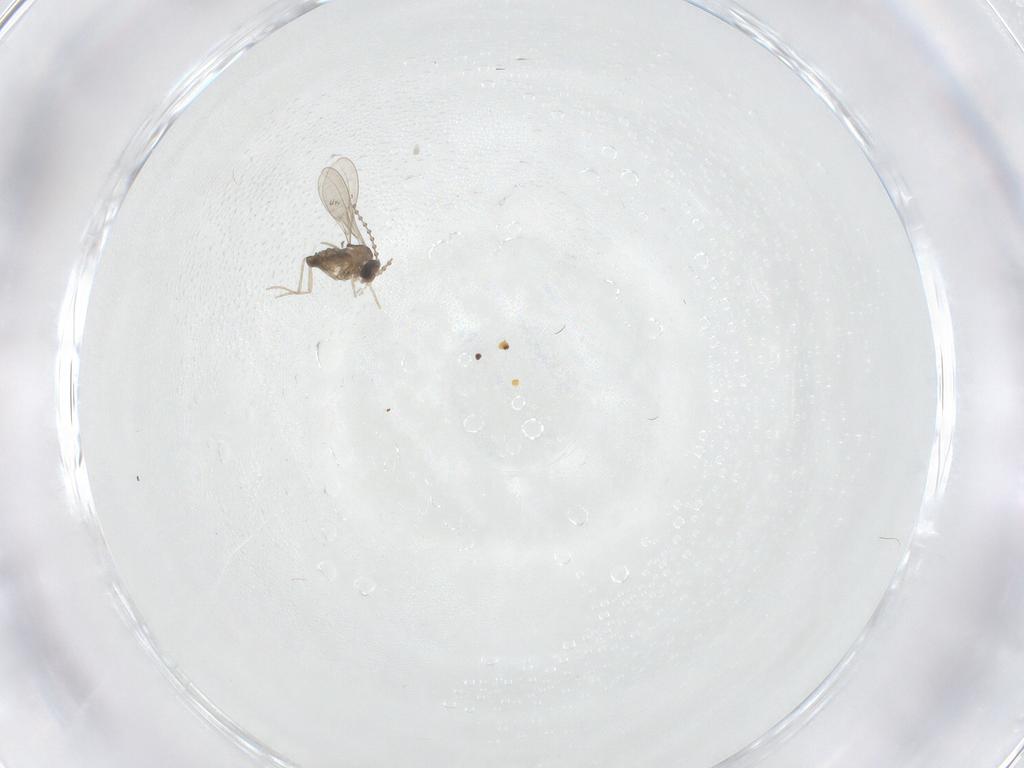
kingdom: Animalia
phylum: Arthropoda
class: Insecta
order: Diptera
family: Cecidomyiidae
